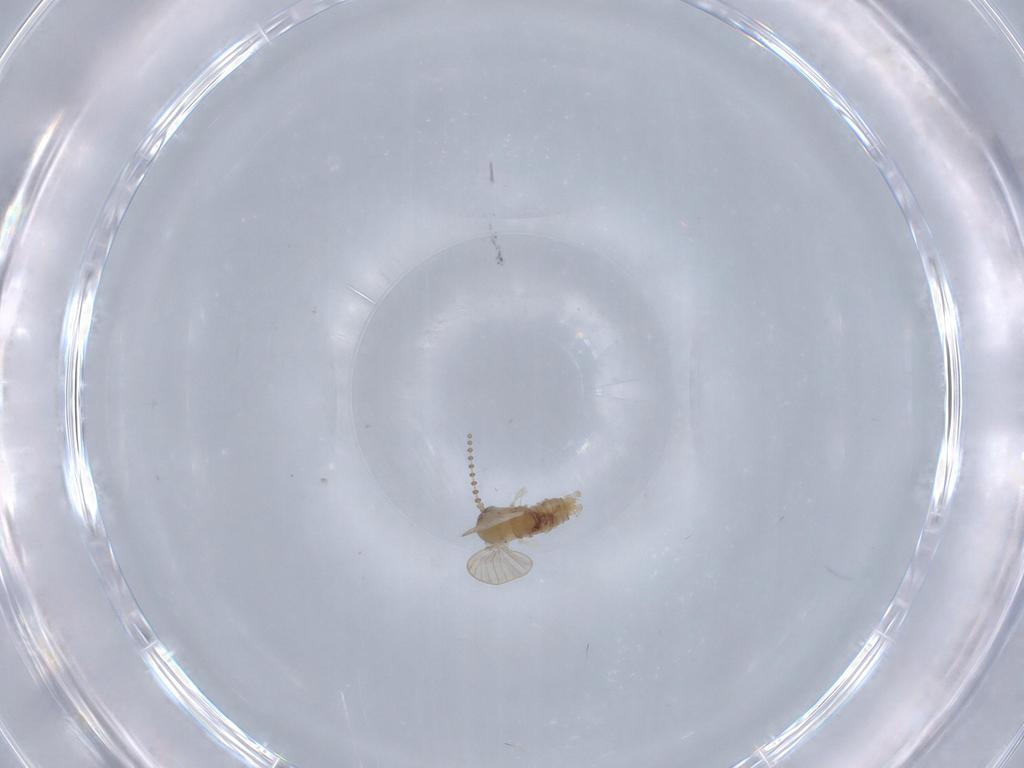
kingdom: Animalia
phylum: Arthropoda
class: Insecta
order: Diptera
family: Psychodidae
